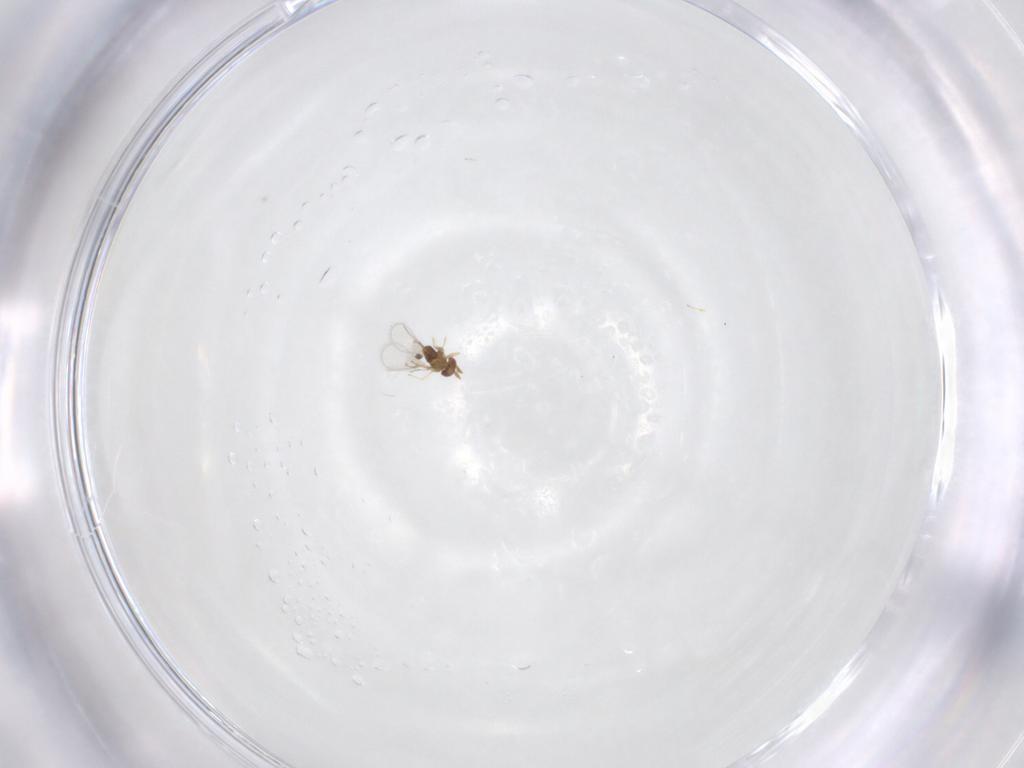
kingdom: Animalia
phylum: Arthropoda
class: Insecta
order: Hymenoptera
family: Trichogrammatidae
